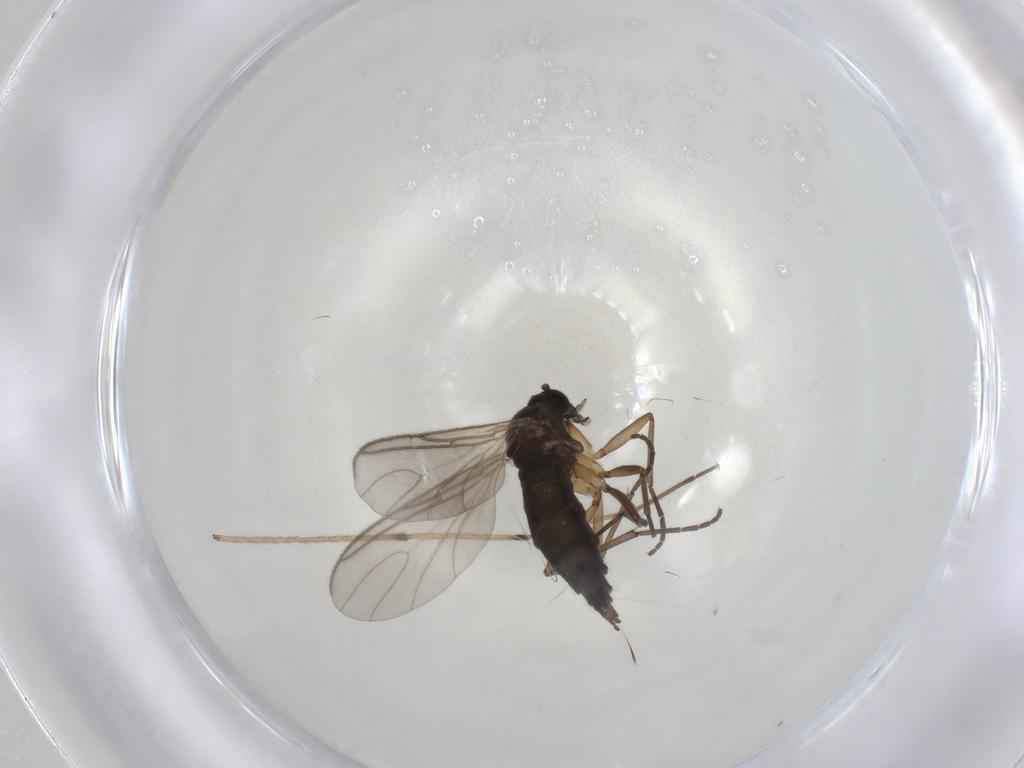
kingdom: Animalia
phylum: Arthropoda
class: Insecta
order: Diptera
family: Sciaridae
